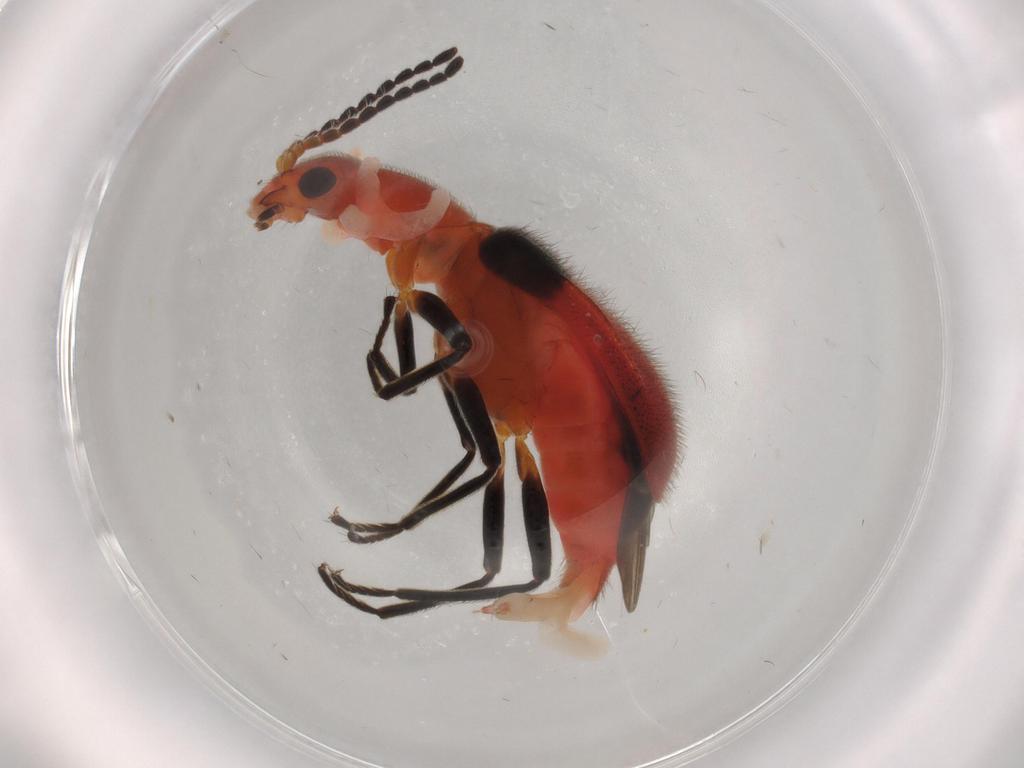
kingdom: Animalia
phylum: Arthropoda
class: Insecta
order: Coleoptera
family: Melyridae
